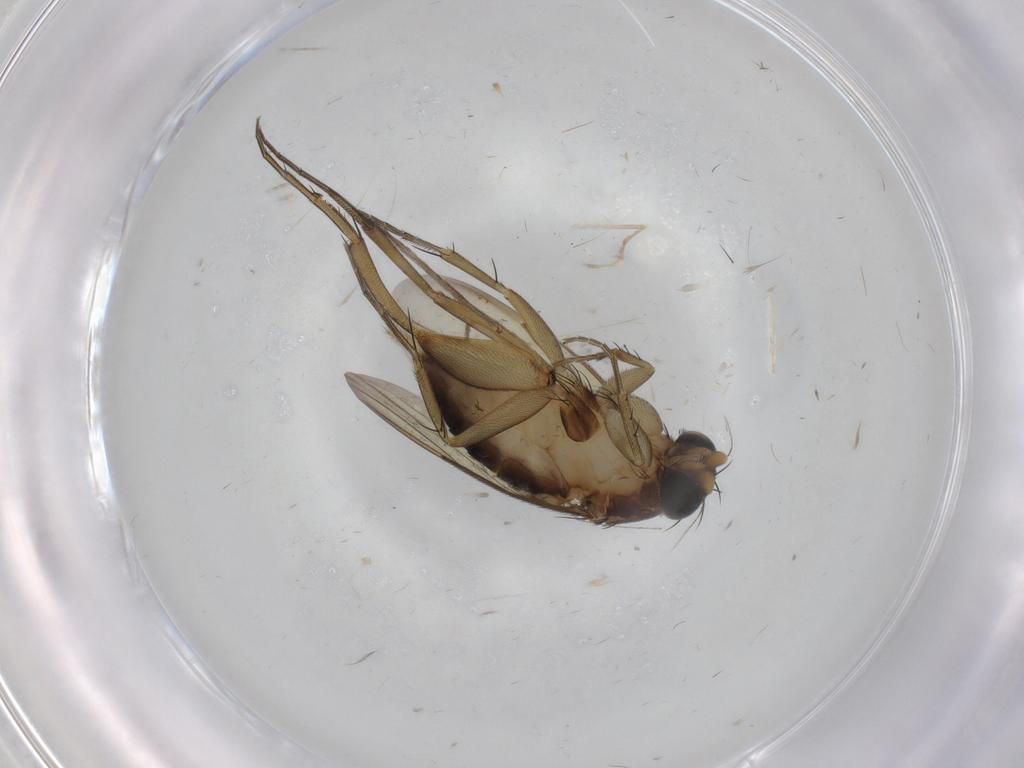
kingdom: Animalia
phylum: Arthropoda
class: Insecta
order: Diptera
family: Phoridae
